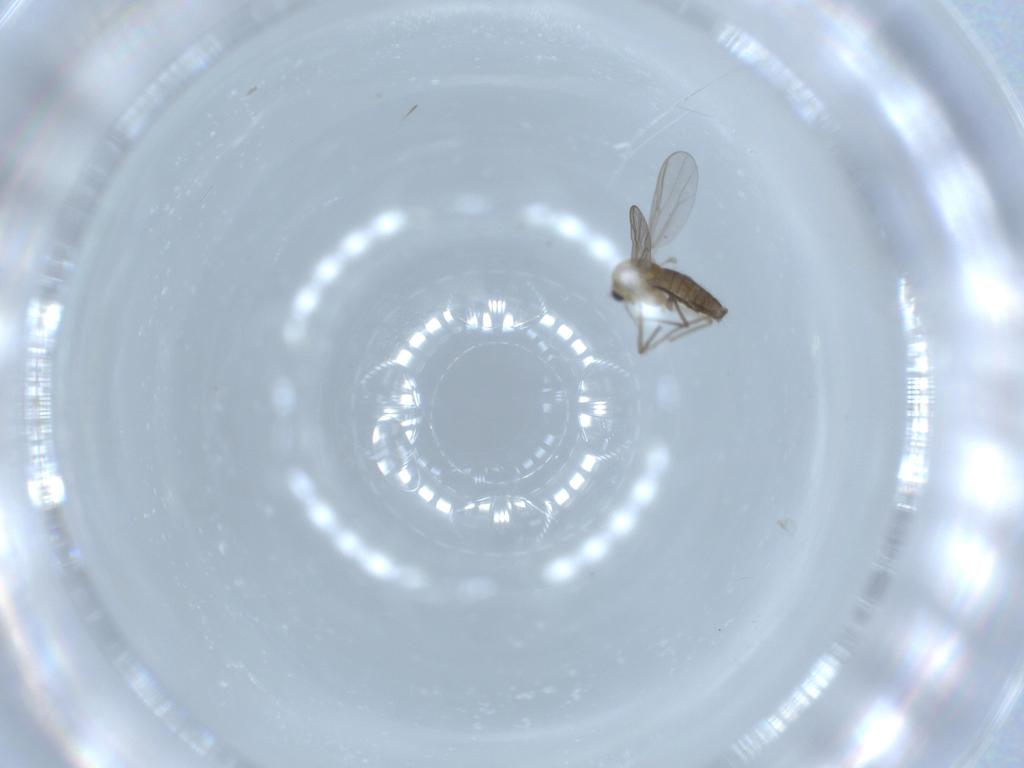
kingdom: Animalia
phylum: Arthropoda
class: Insecta
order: Diptera
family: Chironomidae
